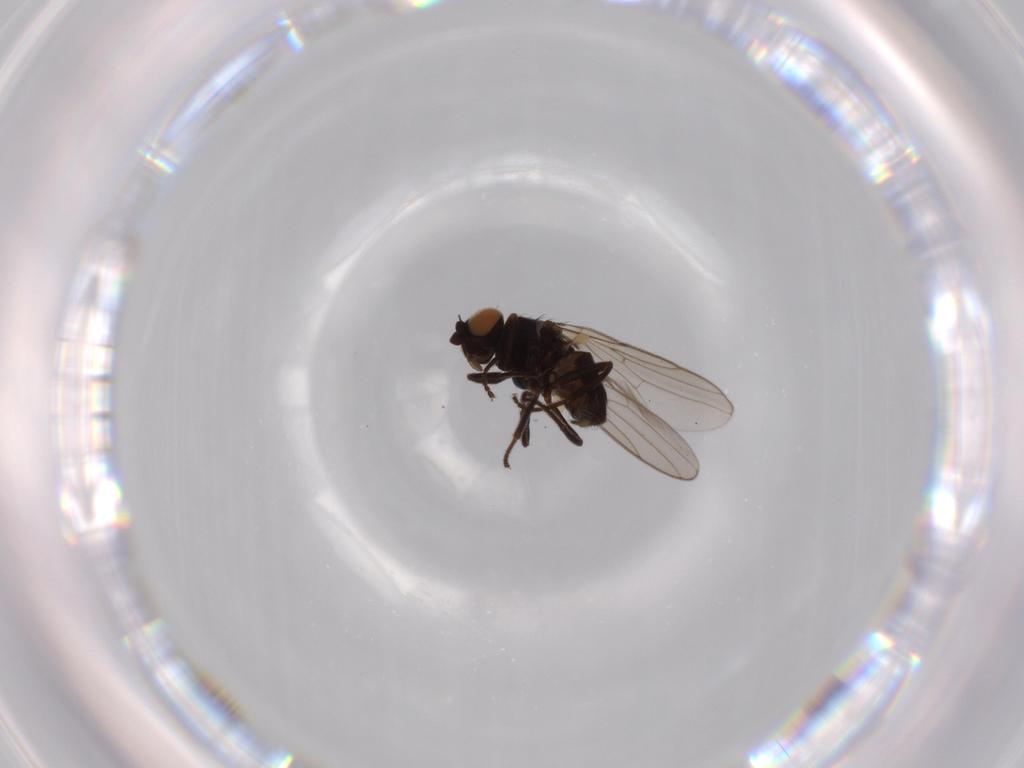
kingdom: Animalia
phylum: Arthropoda
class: Insecta
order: Diptera
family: Chloropidae
